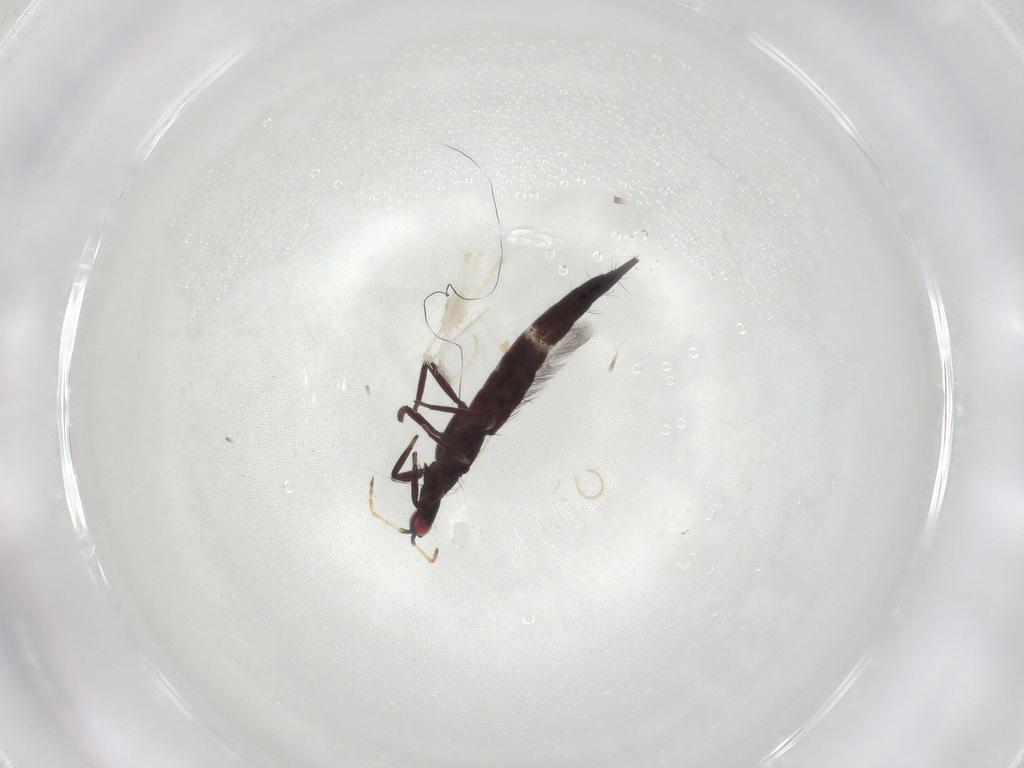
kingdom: Animalia
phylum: Arthropoda
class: Insecta
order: Thysanoptera
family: Phlaeothripidae
